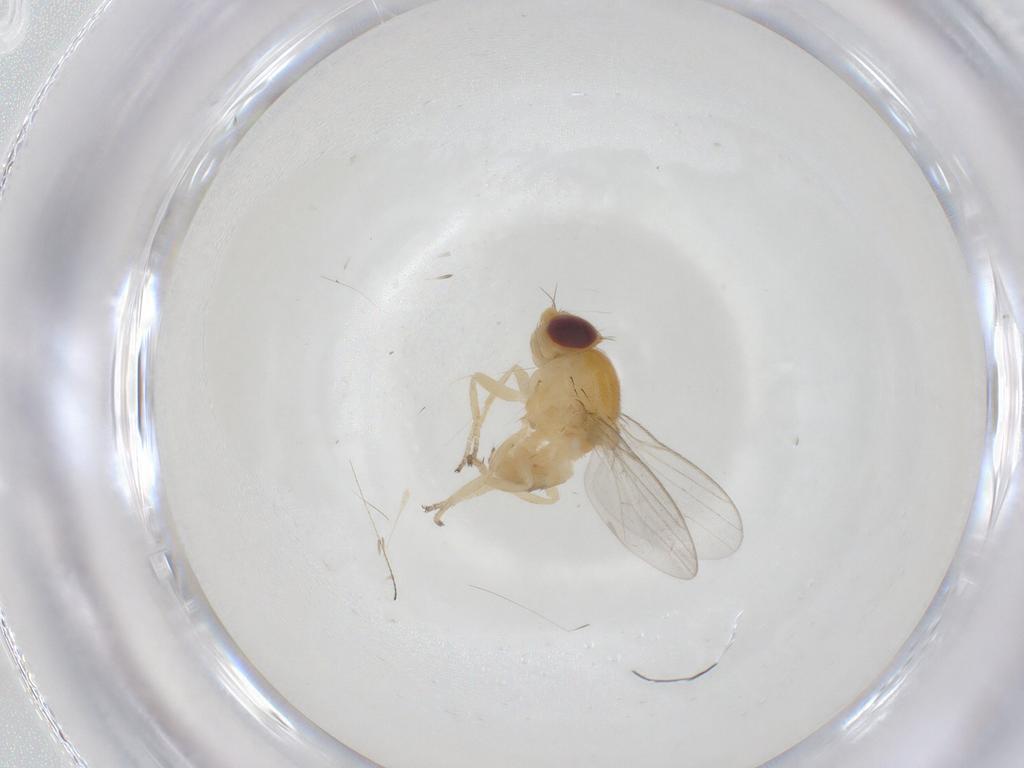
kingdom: Animalia
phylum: Arthropoda
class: Insecta
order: Diptera
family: Chloropidae
